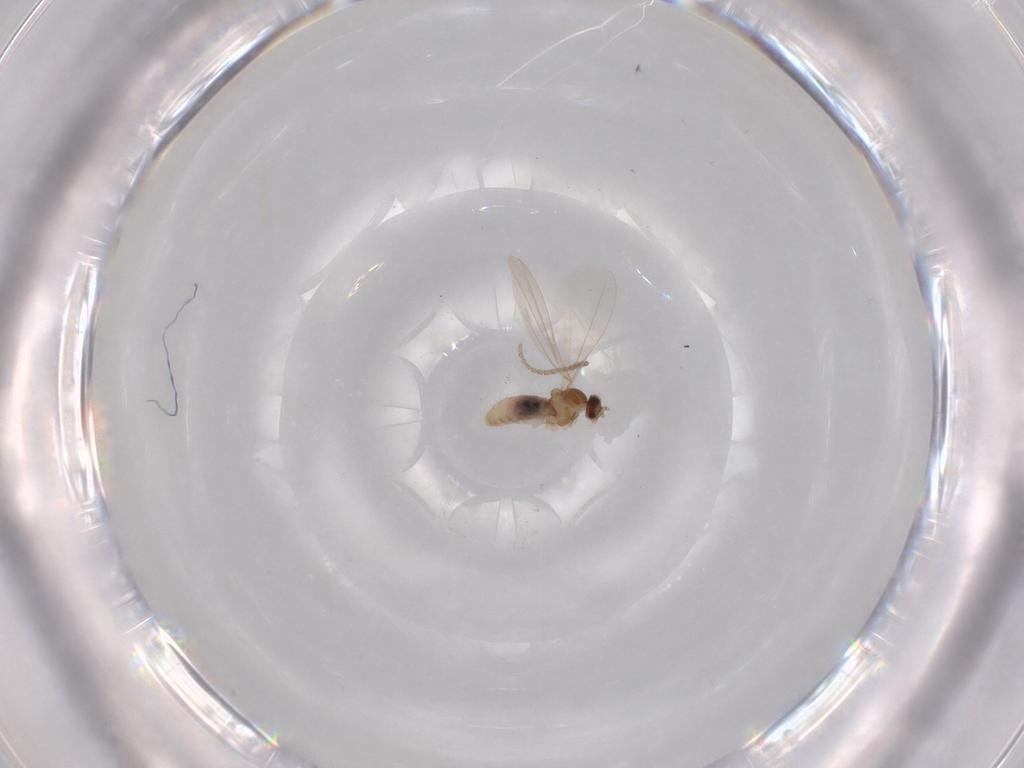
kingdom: Animalia
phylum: Arthropoda
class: Insecta
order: Diptera
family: Cecidomyiidae
